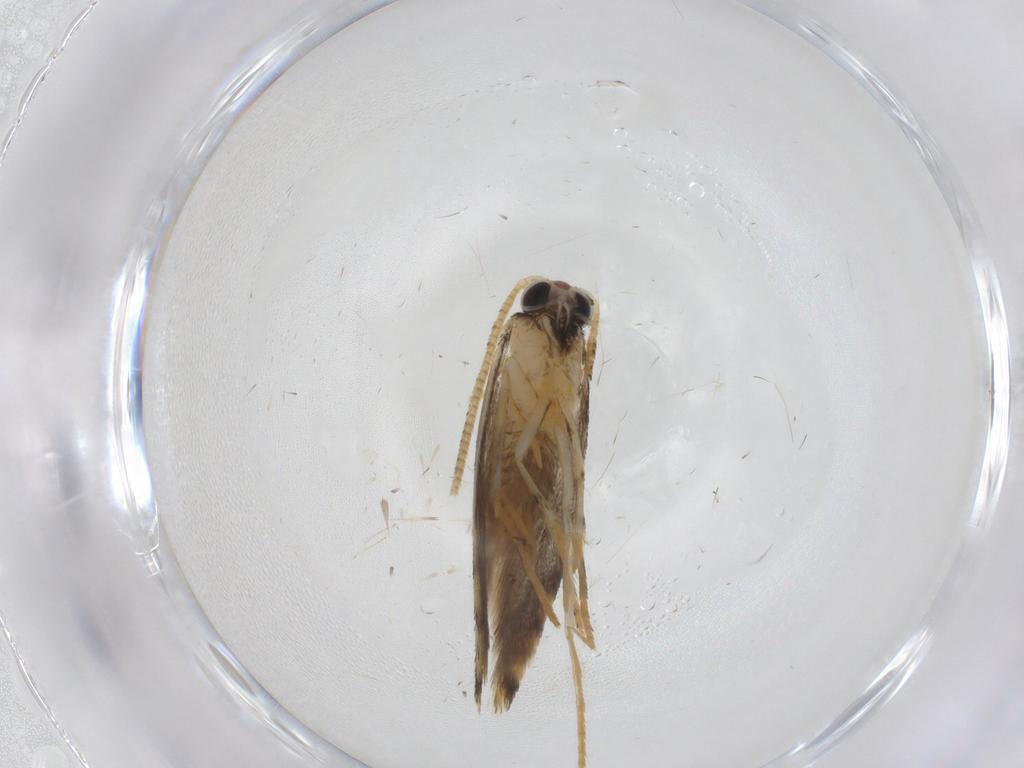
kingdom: Animalia
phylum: Arthropoda
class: Insecta
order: Lepidoptera
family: Tineidae
